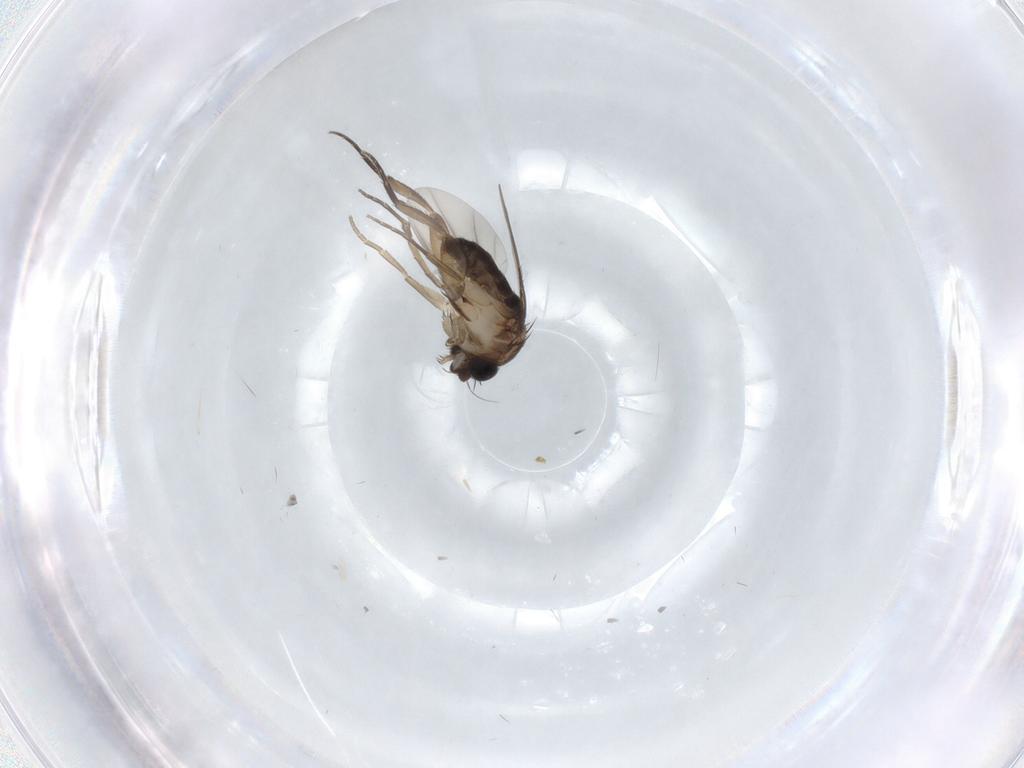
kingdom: Animalia
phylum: Arthropoda
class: Insecta
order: Diptera
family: Phoridae
